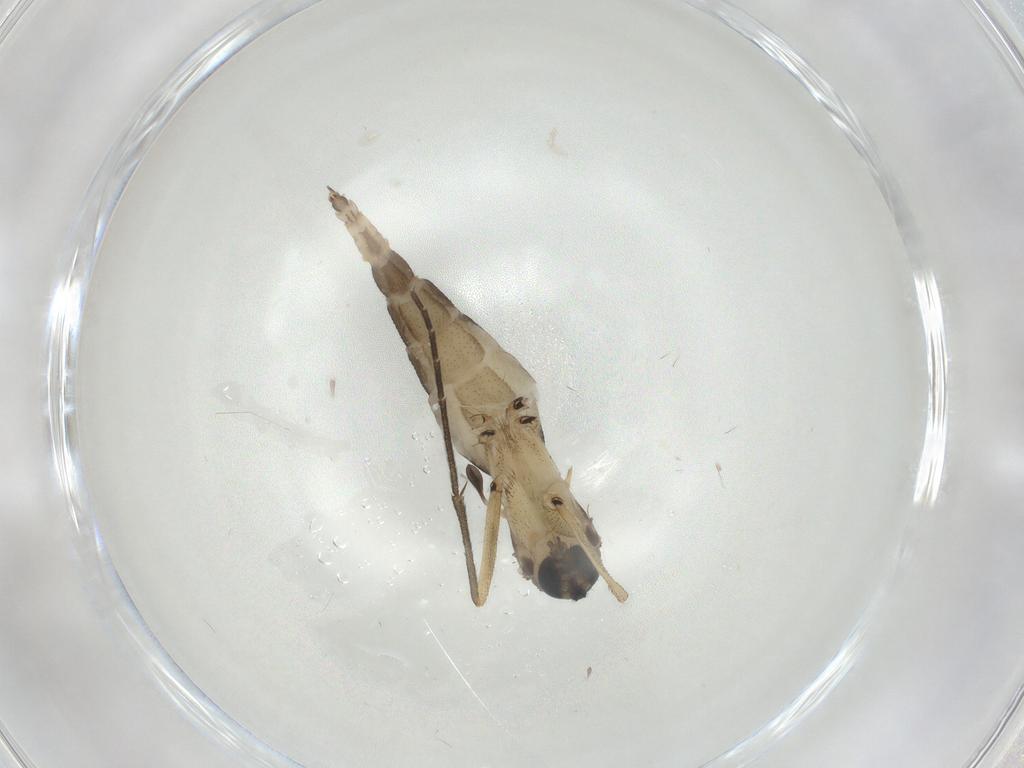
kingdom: Animalia
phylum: Arthropoda
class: Insecta
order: Diptera
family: Sciaridae
